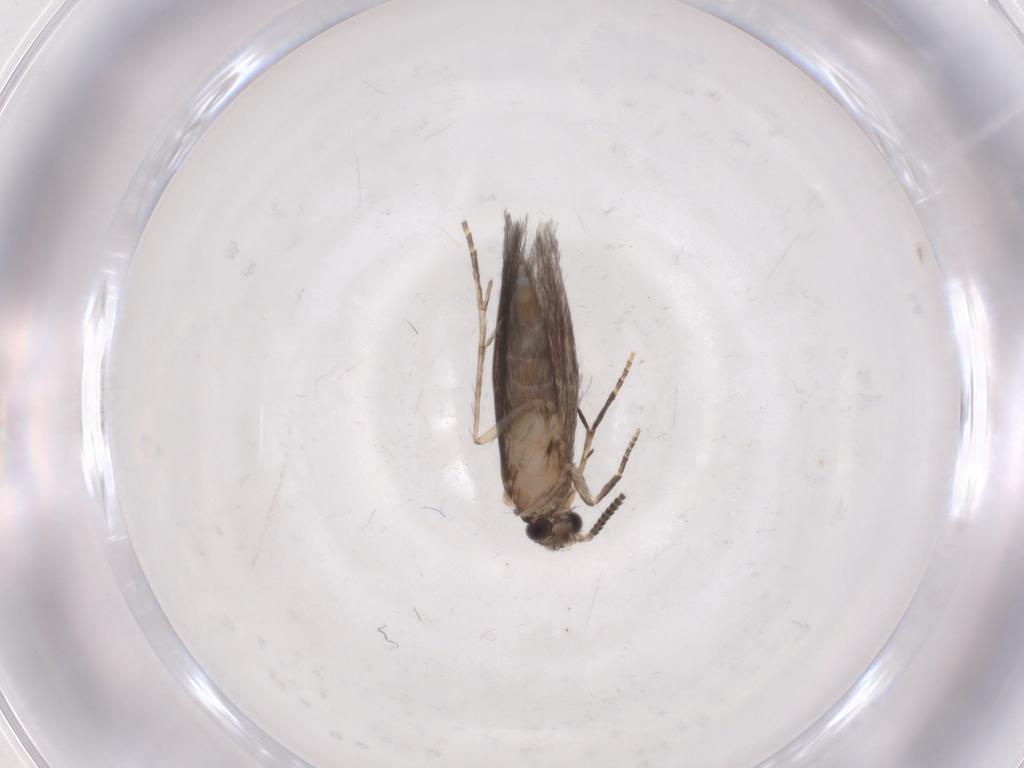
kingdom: Animalia
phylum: Arthropoda
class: Insecta
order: Trichoptera
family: Hydroptilidae
